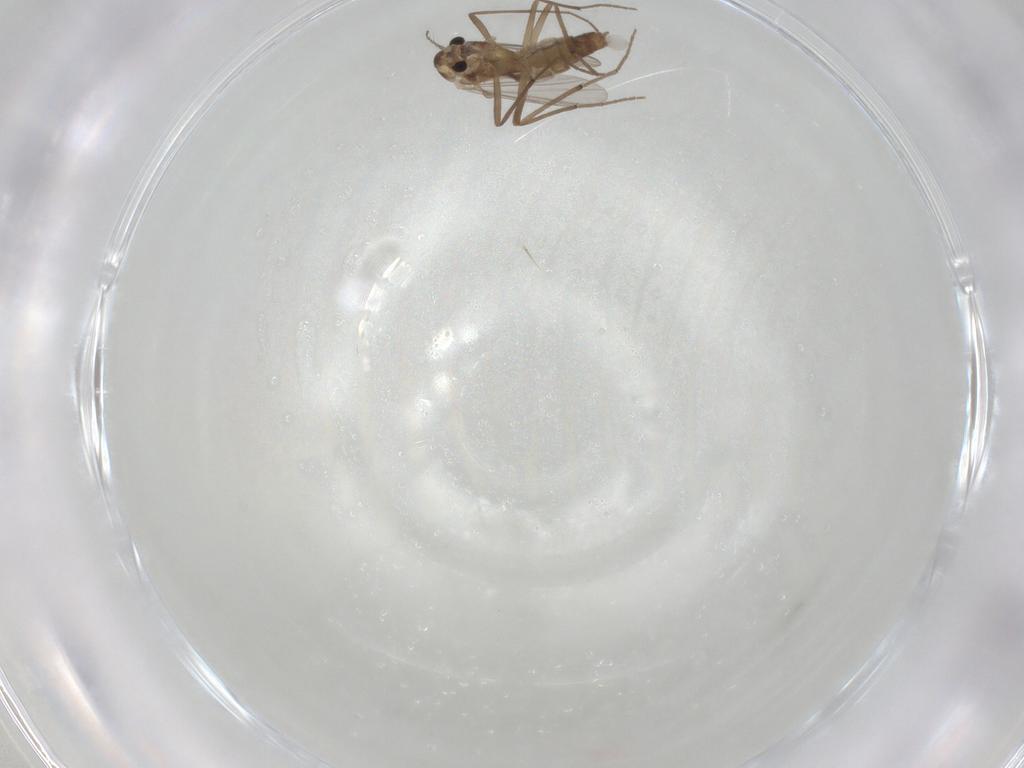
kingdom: Animalia
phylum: Arthropoda
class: Insecta
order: Diptera
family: Chironomidae
